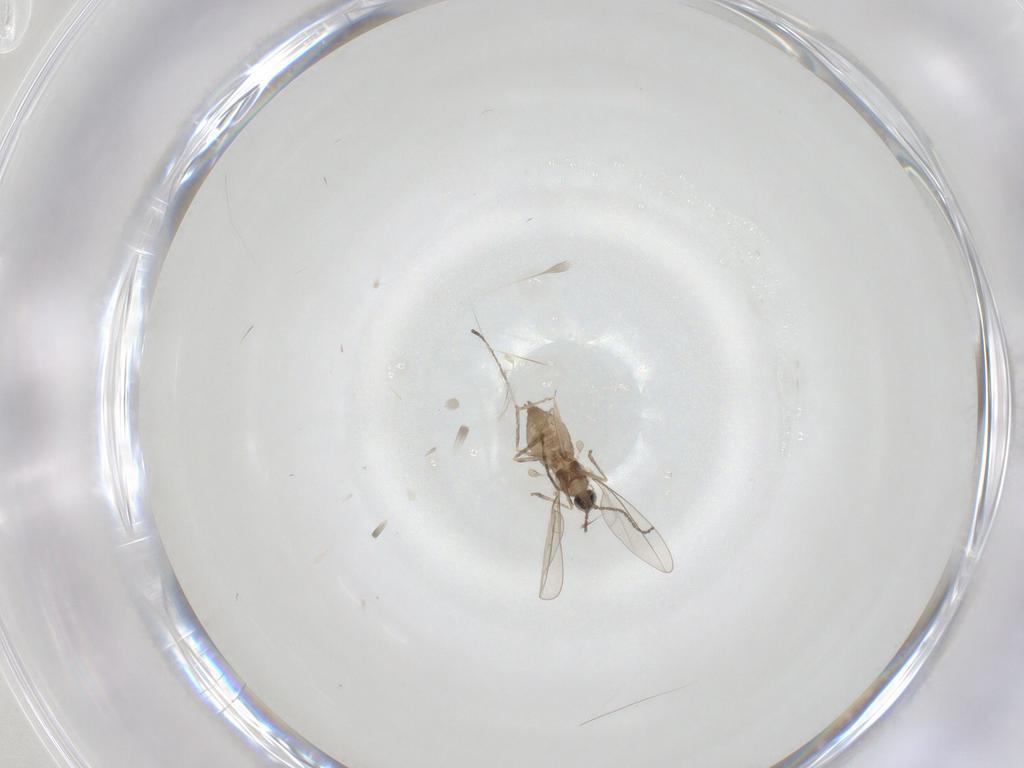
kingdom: Animalia
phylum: Arthropoda
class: Insecta
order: Diptera
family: Cecidomyiidae
